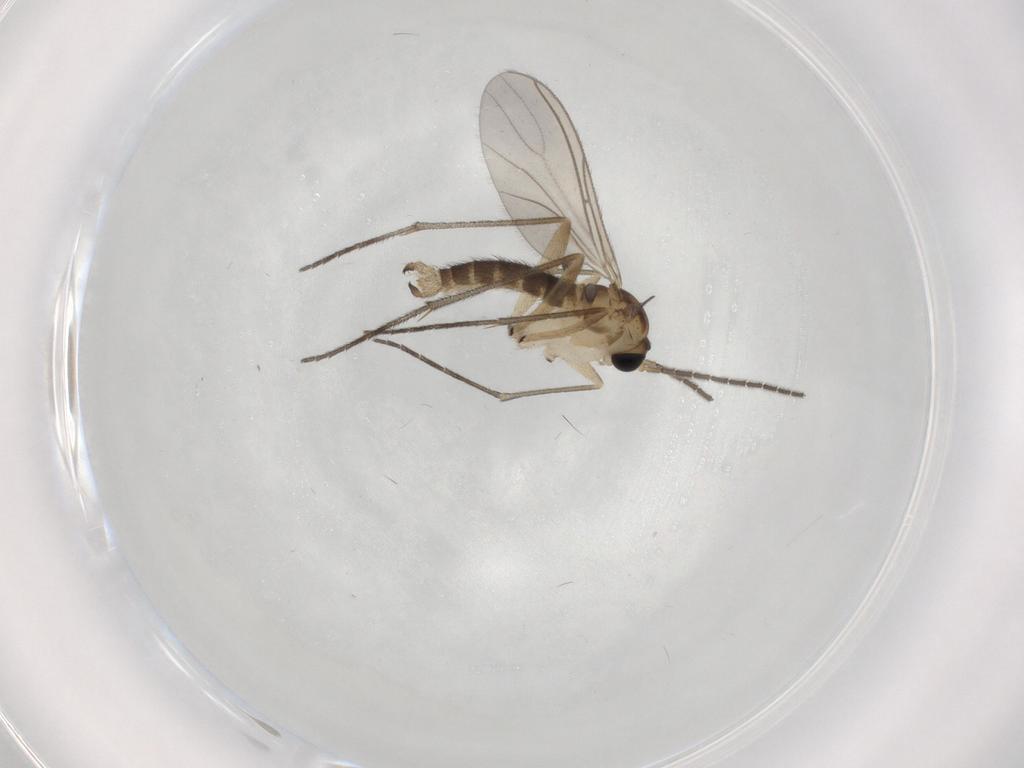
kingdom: Animalia
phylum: Arthropoda
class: Insecta
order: Diptera
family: Sciaridae
